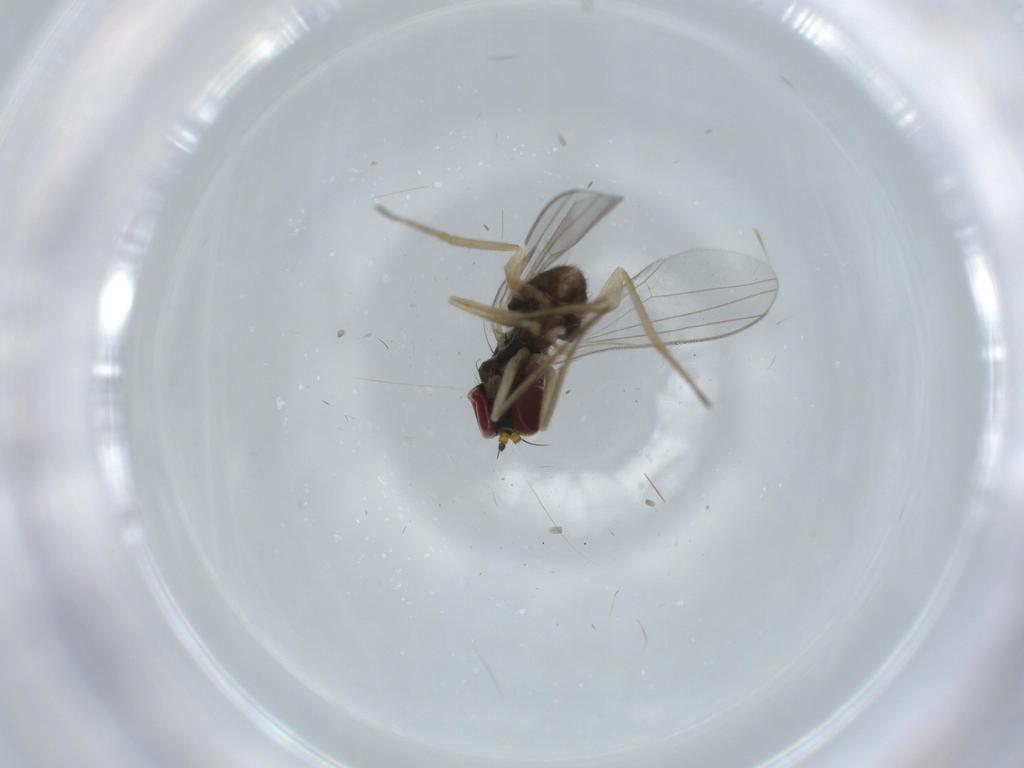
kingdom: Animalia
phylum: Arthropoda
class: Insecta
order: Diptera
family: Dolichopodidae
